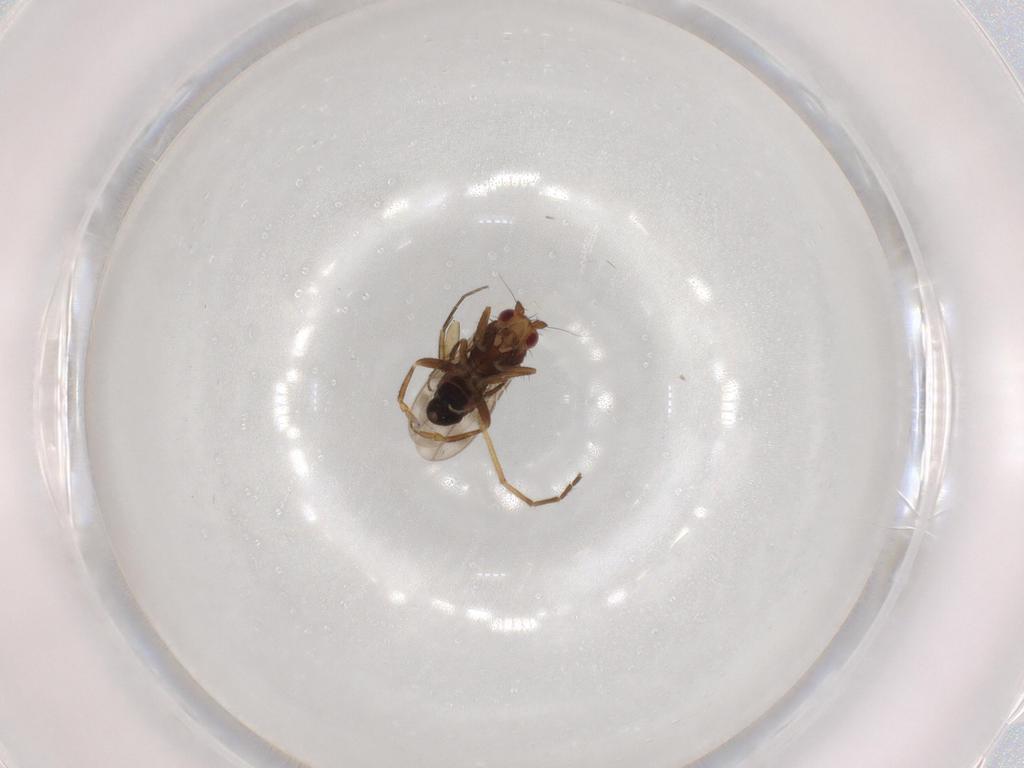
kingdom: Animalia
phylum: Arthropoda
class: Insecta
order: Diptera
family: Sphaeroceridae
